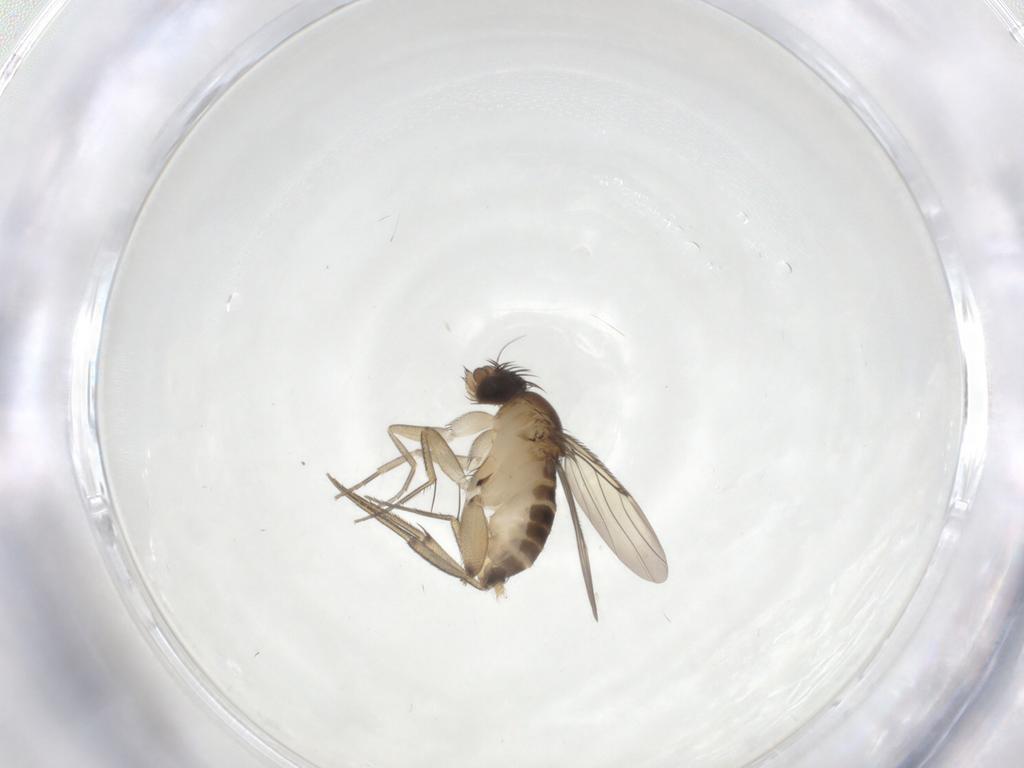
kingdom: Animalia
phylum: Arthropoda
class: Insecta
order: Diptera
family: Phoridae
